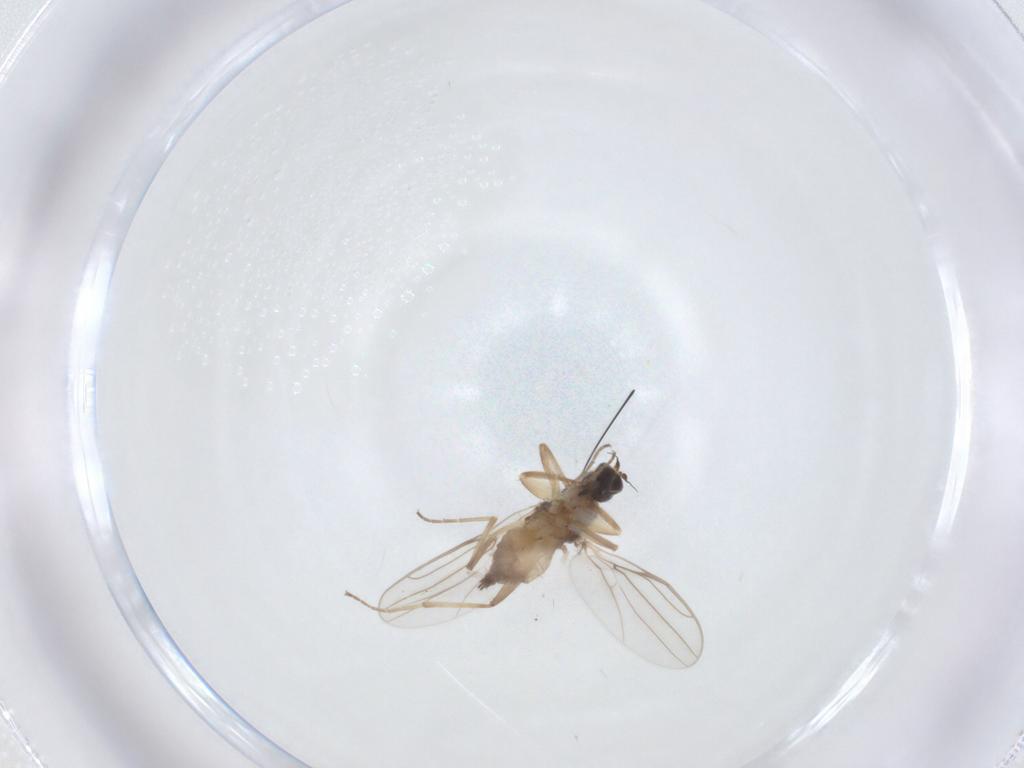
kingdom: Animalia
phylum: Arthropoda
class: Insecta
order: Diptera
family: Hybotidae
